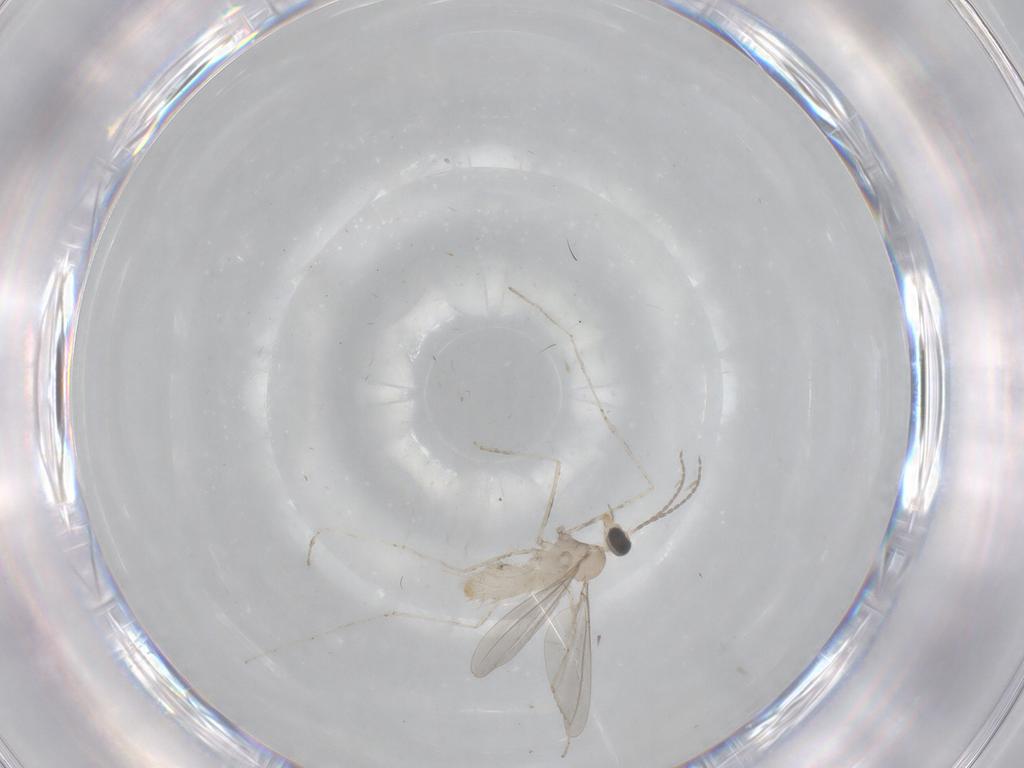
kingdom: Animalia
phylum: Arthropoda
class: Insecta
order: Diptera
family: Cecidomyiidae
